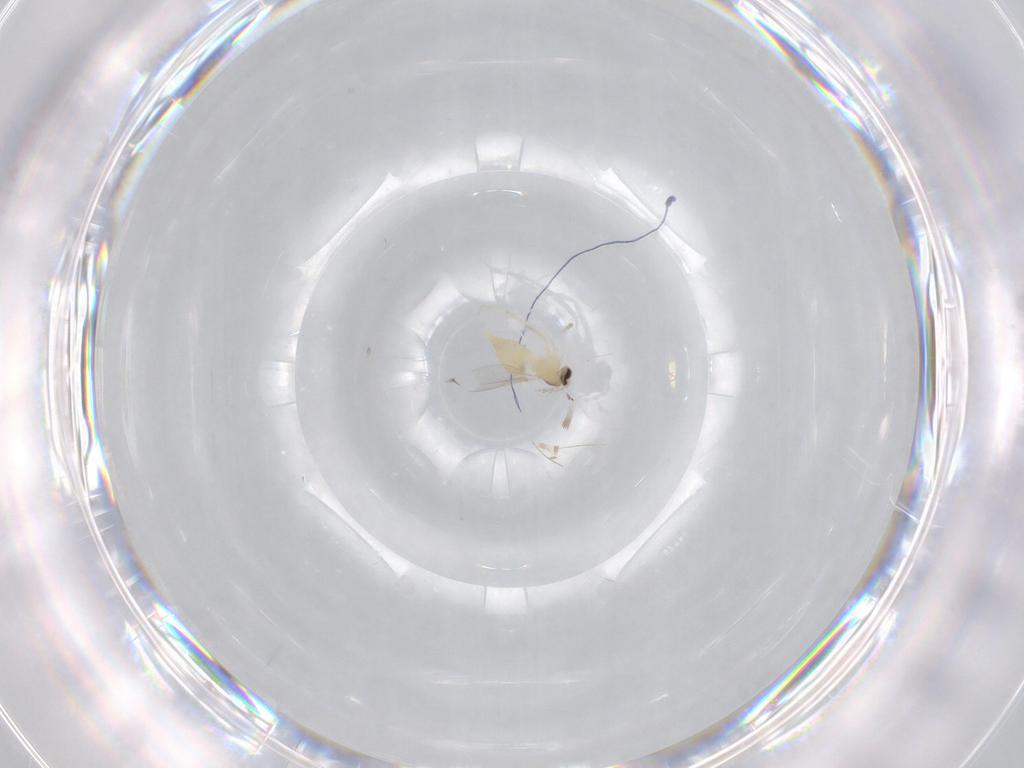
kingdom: Animalia
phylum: Arthropoda
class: Insecta
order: Diptera
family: Cecidomyiidae
